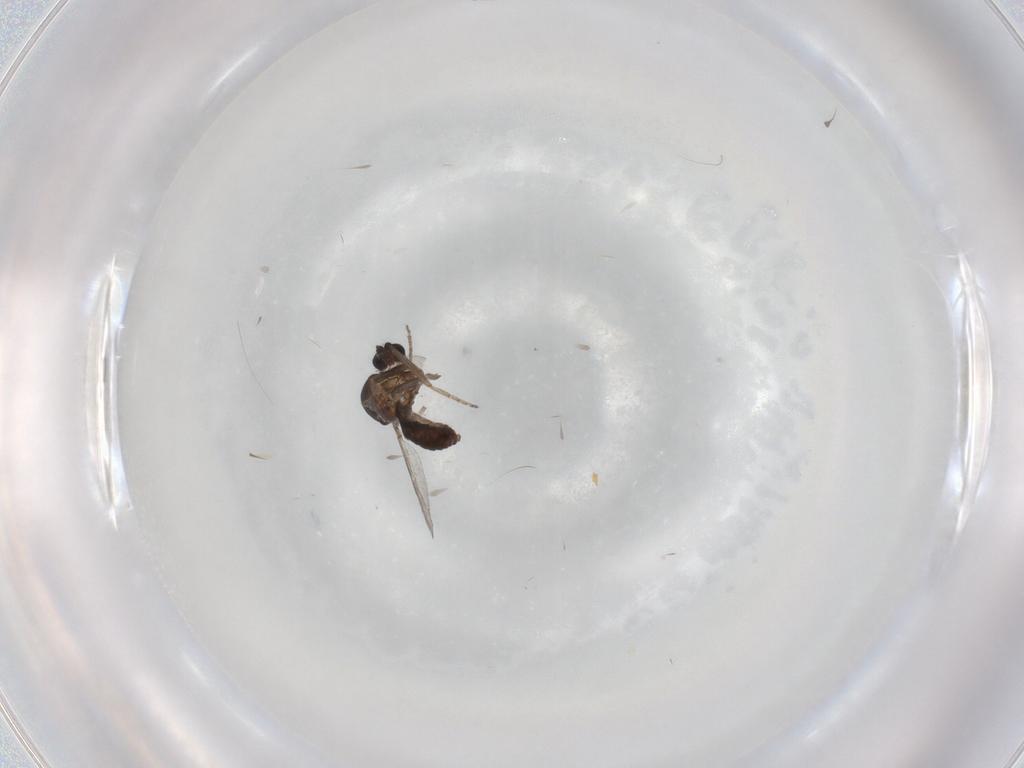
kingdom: Animalia
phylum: Arthropoda
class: Insecta
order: Diptera
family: Ceratopogonidae
